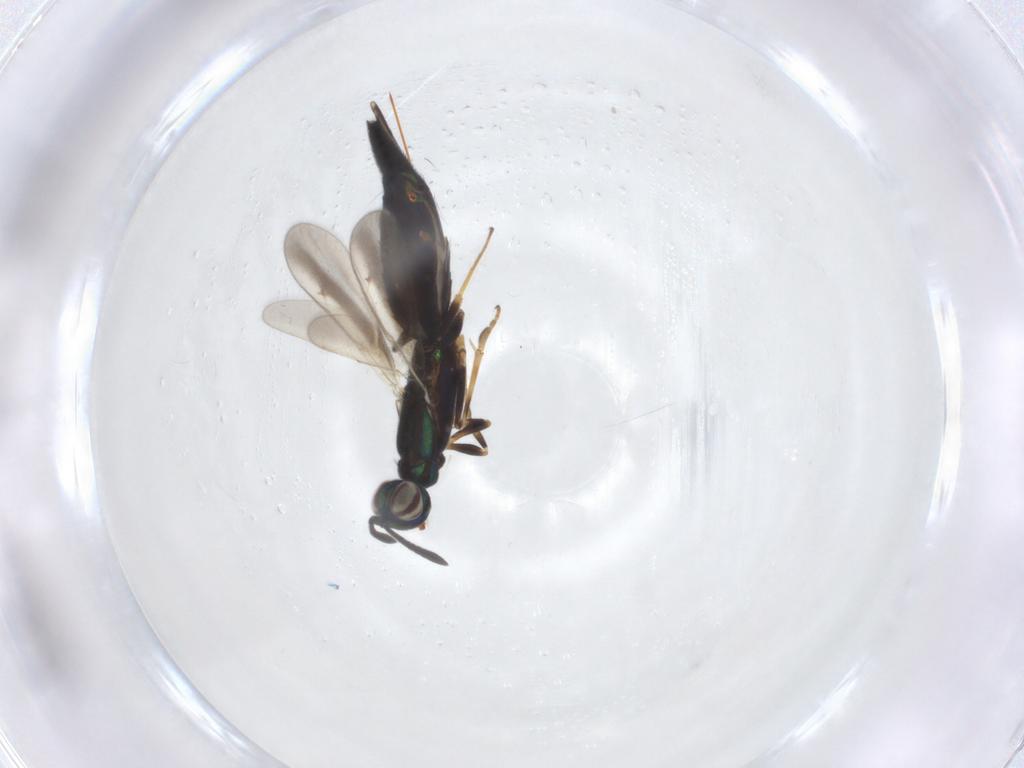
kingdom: Animalia
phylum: Arthropoda
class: Insecta
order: Hymenoptera
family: Eupelmidae
